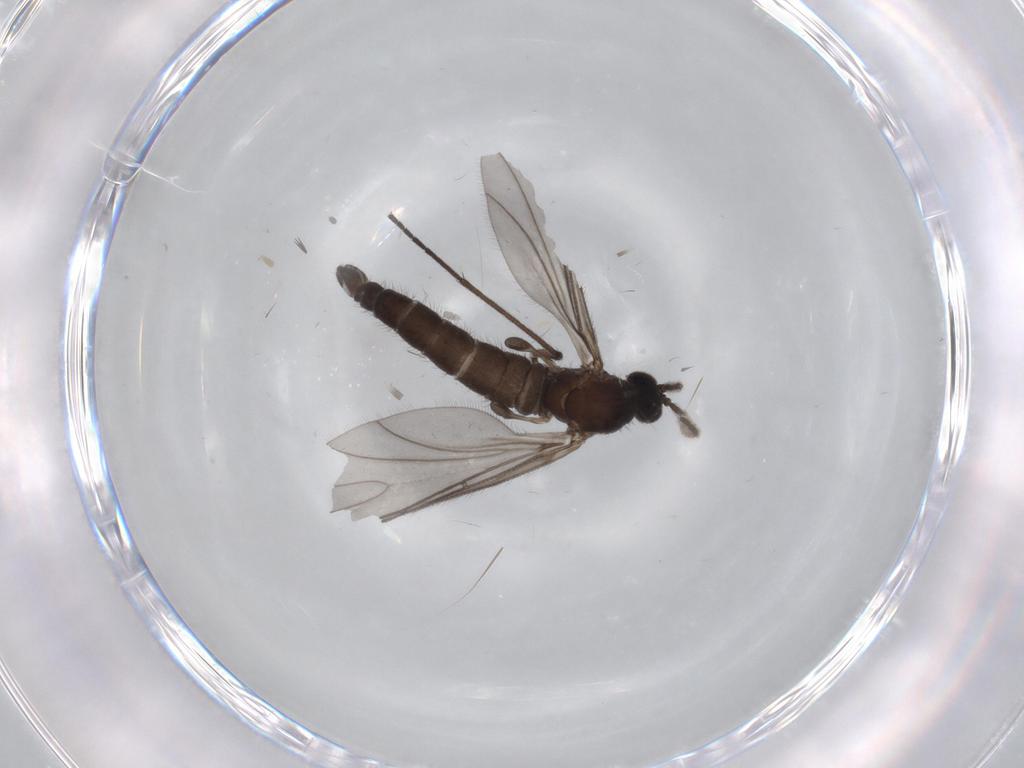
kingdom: Animalia
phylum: Arthropoda
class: Insecta
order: Diptera
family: Sciaridae
